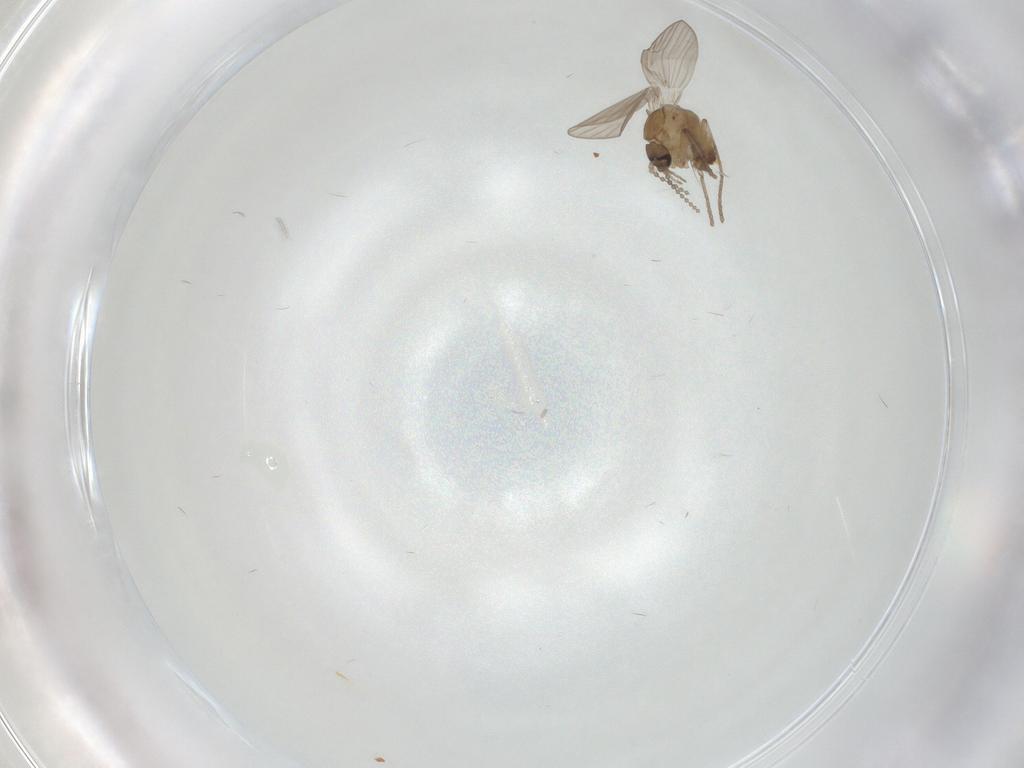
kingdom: Animalia
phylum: Arthropoda
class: Insecta
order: Diptera
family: Psychodidae
